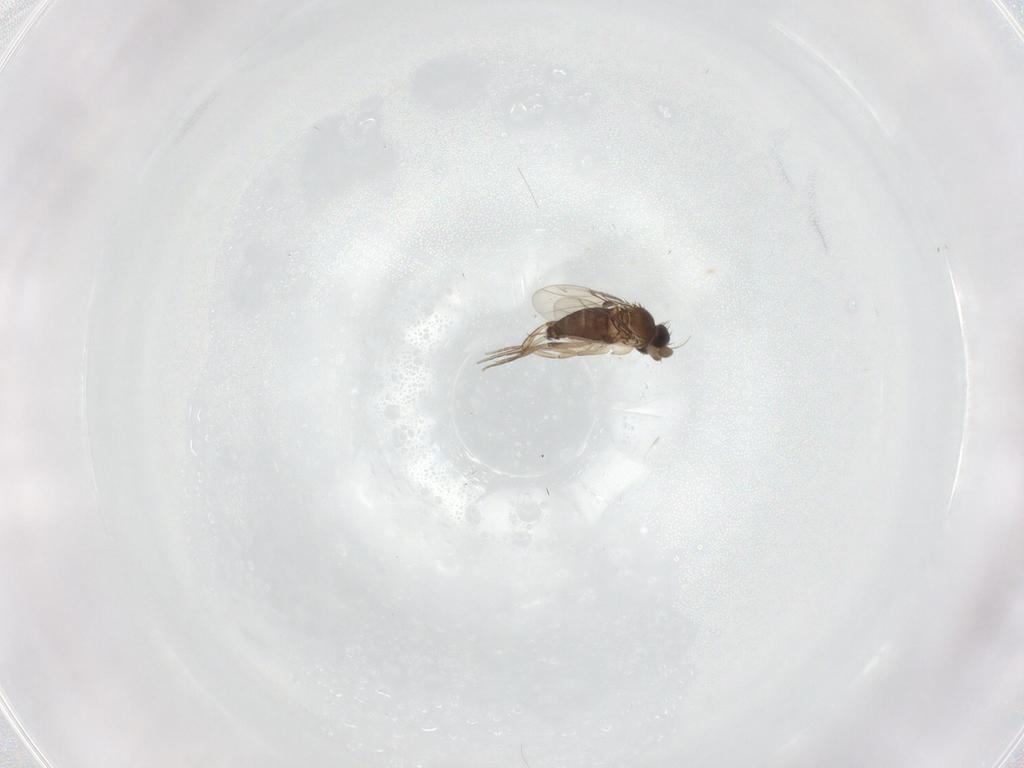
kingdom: Animalia
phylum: Arthropoda
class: Insecta
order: Diptera
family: Phoridae
